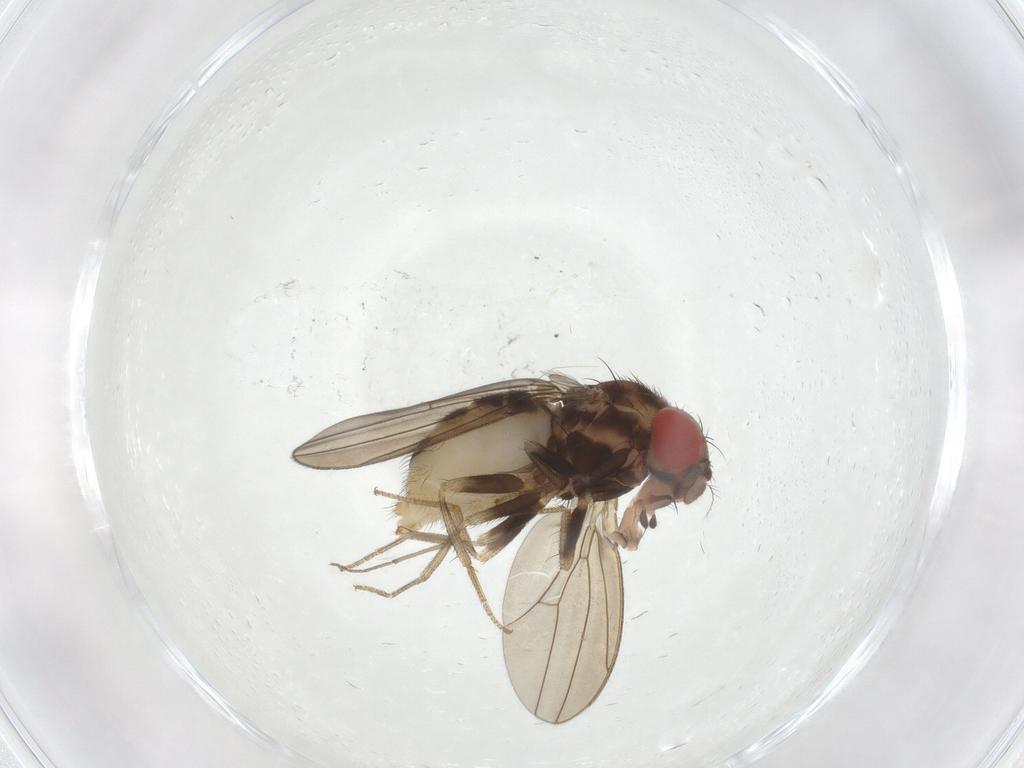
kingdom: Animalia
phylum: Arthropoda
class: Insecta
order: Diptera
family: Drosophilidae
